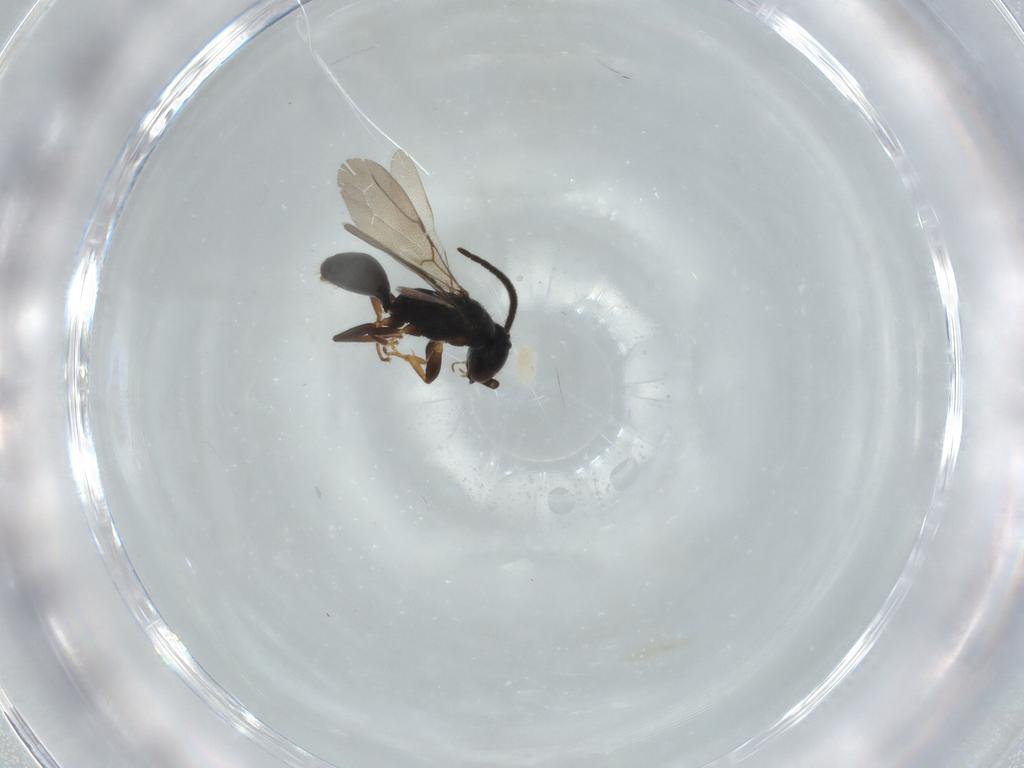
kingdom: Animalia
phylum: Arthropoda
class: Insecta
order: Hymenoptera
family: Bethylidae
